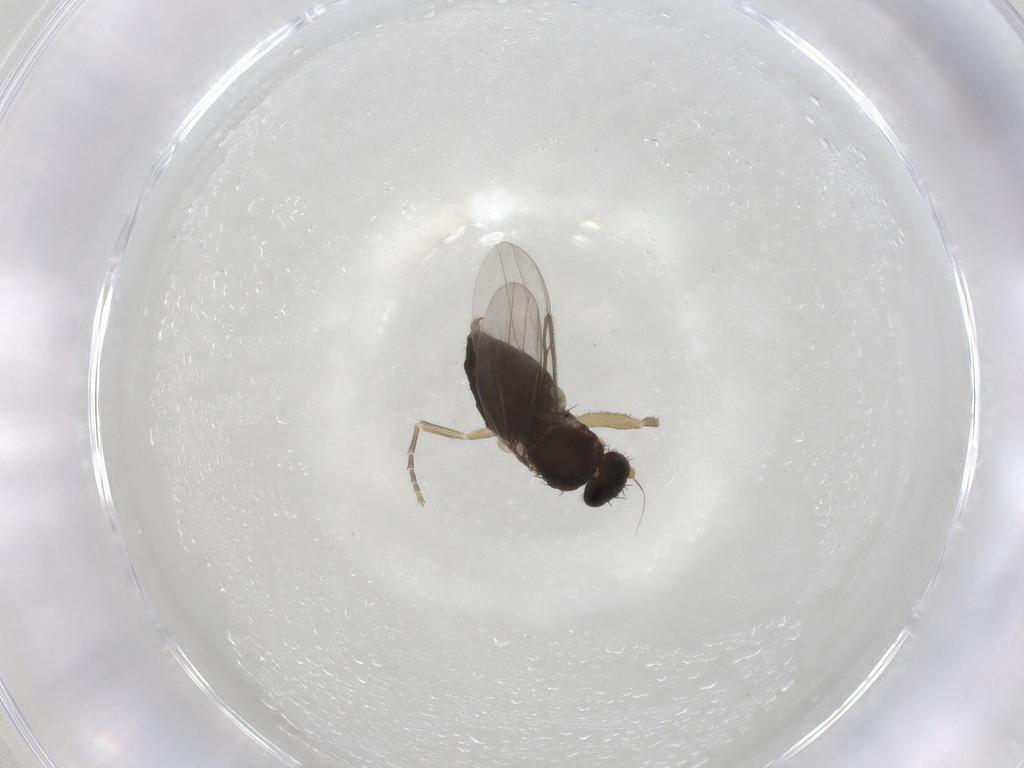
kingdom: Animalia
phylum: Arthropoda
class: Insecta
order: Diptera
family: Phoridae
